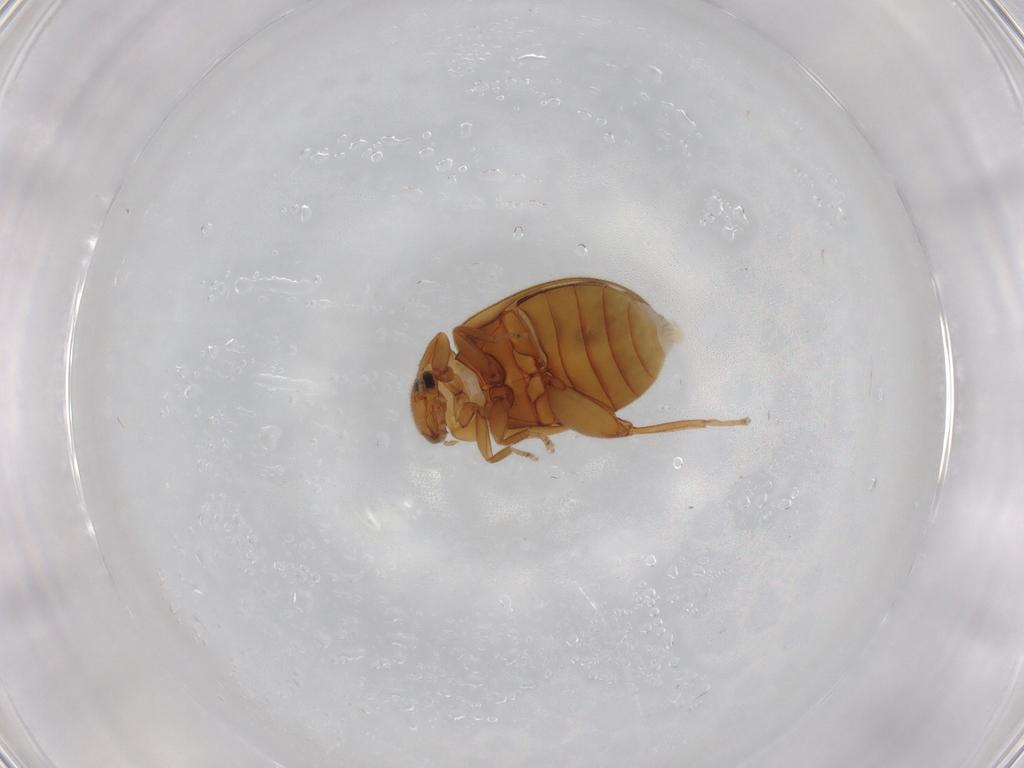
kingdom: Animalia
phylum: Arthropoda
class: Insecta
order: Coleoptera
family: Scirtidae
